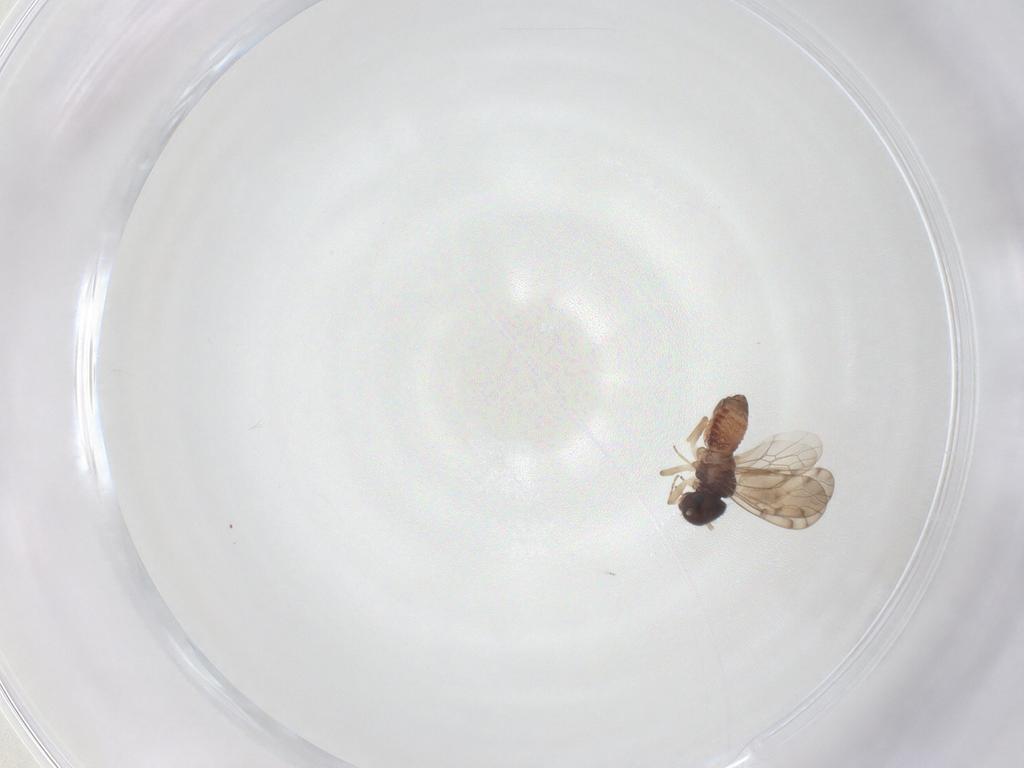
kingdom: Animalia
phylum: Arthropoda
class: Insecta
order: Psocodea
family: Peripsocidae
